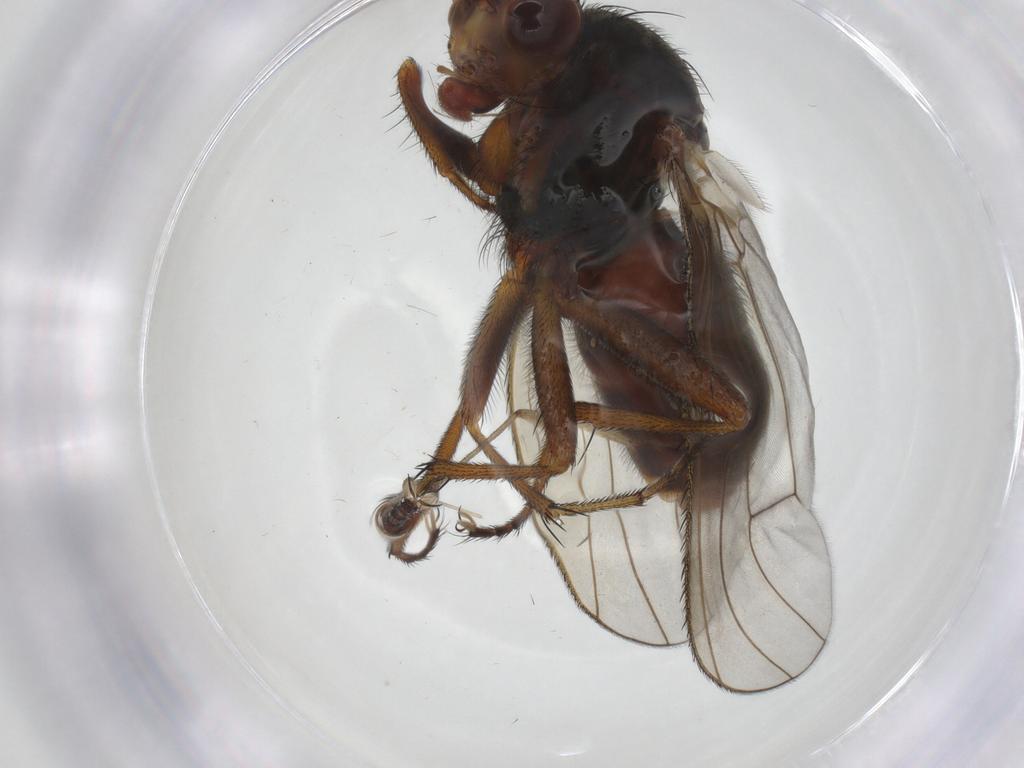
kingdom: Animalia
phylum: Arthropoda
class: Insecta
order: Diptera
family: Heleomyzidae
